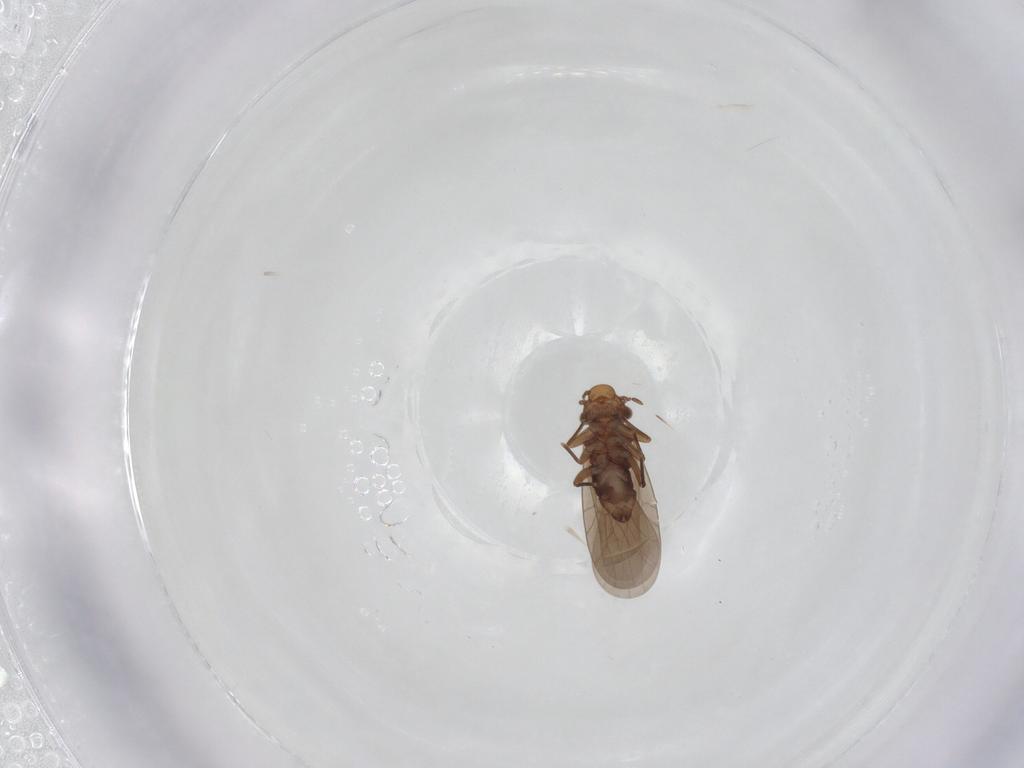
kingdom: Animalia
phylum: Arthropoda
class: Insecta
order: Psocodea
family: Lepidopsocidae
